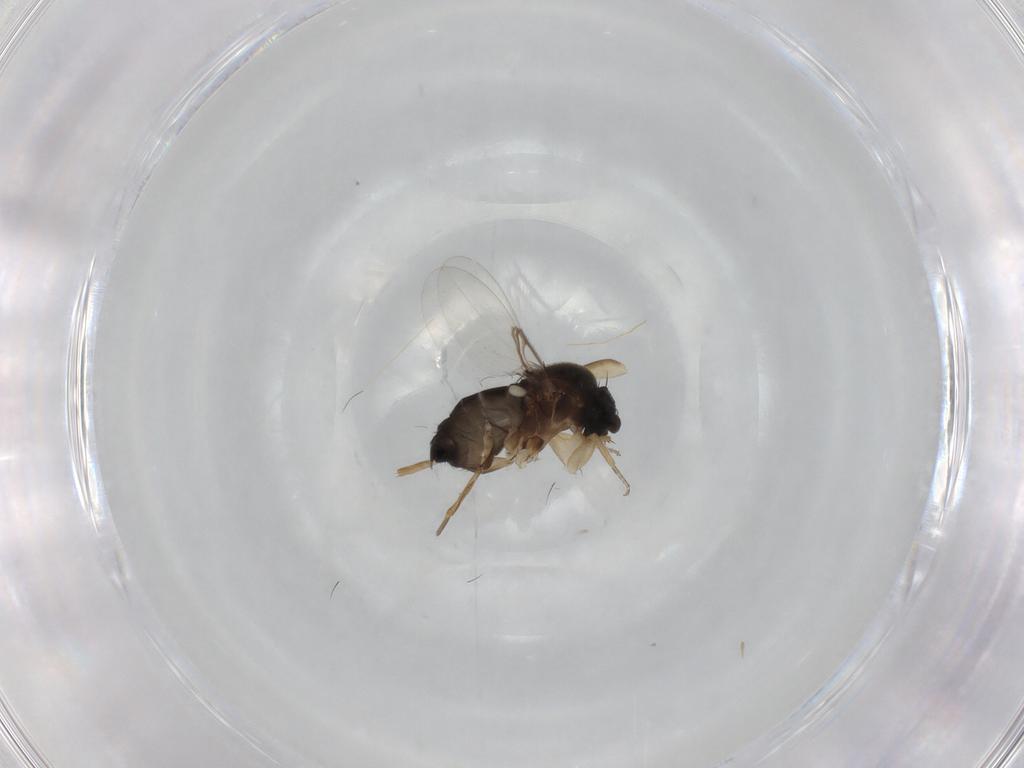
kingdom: Animalia
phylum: Arthropoda
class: Insecta
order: Diptera
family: Phoridae
